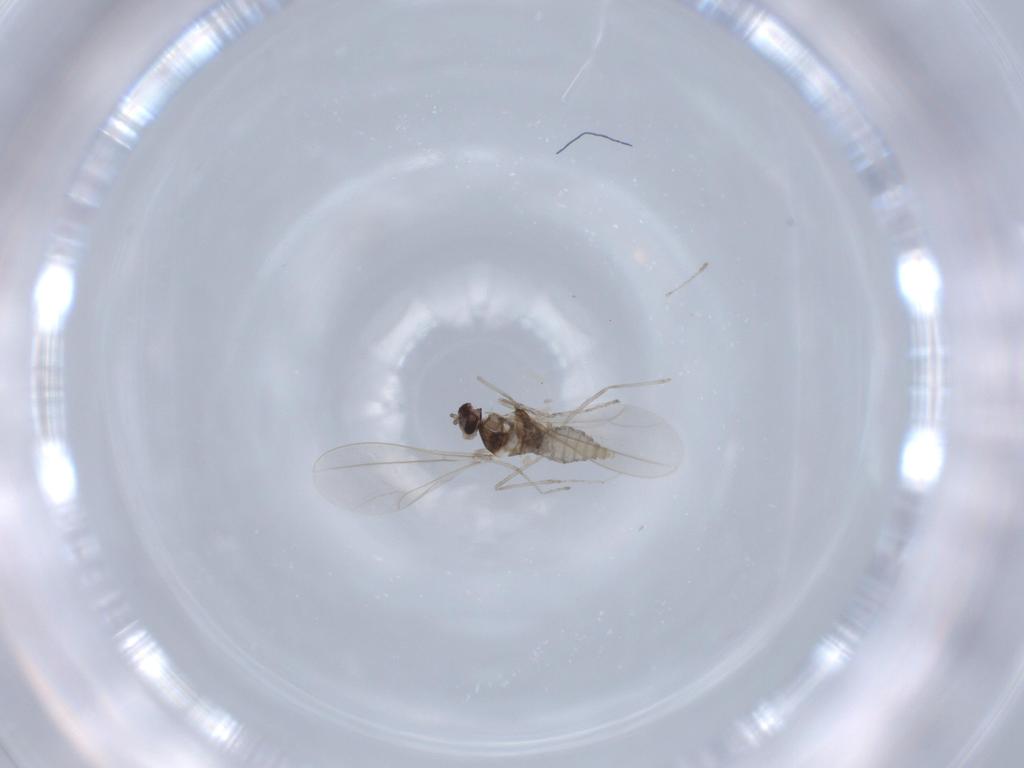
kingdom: Animalia
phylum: Arthropoda
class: Insecta
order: Diptera
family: Cecidomyiidae
